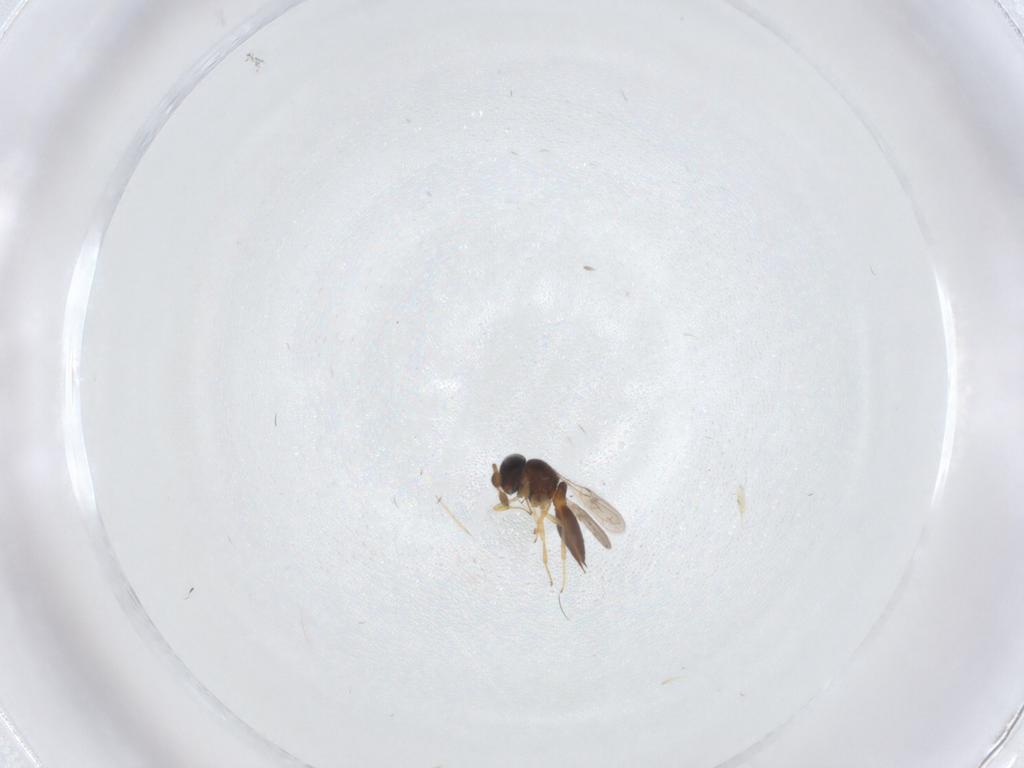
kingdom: Animalia
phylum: Arthropoda
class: Insecta
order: Hymenoptera
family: Scelionidae
